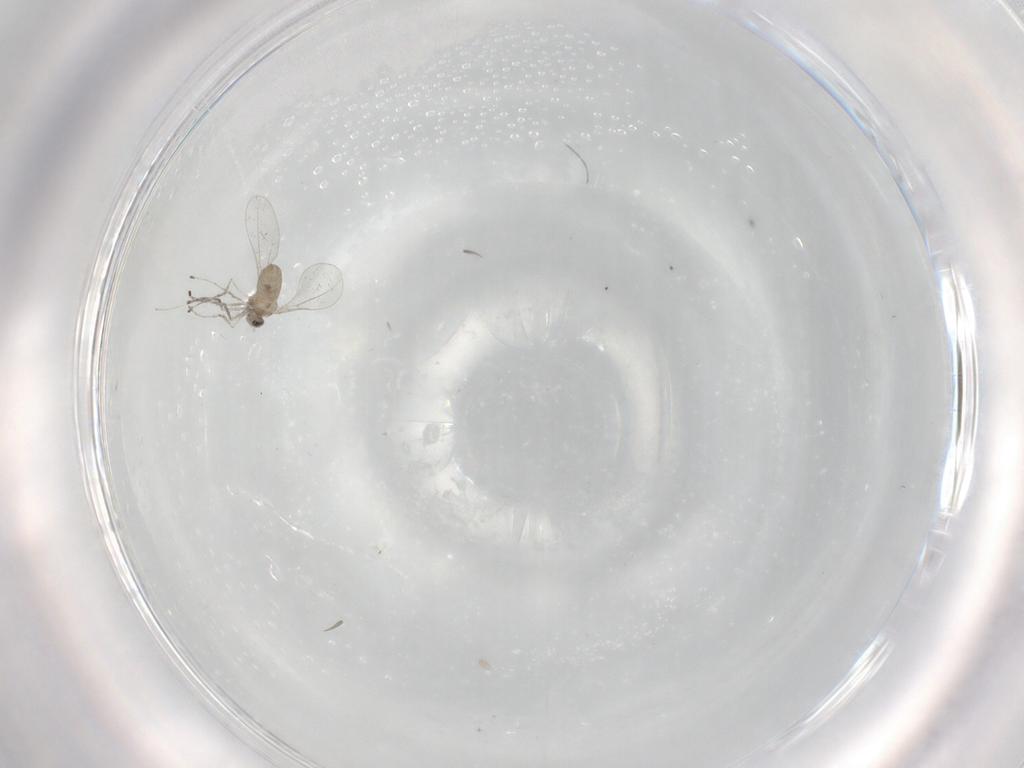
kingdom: Animalia
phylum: Arthropoda
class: Insecta
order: Diptera
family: Cecidomyiidae
